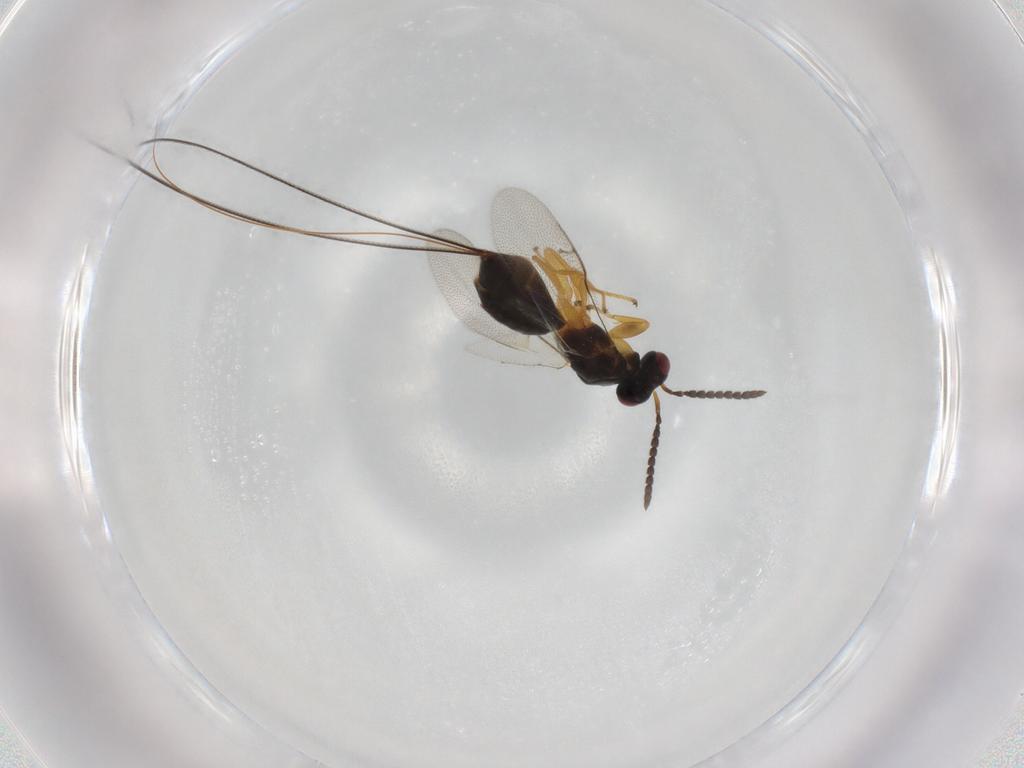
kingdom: Animalia
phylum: Arthropoda
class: Insecta
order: Hymenoptera
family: Pteromalidae
